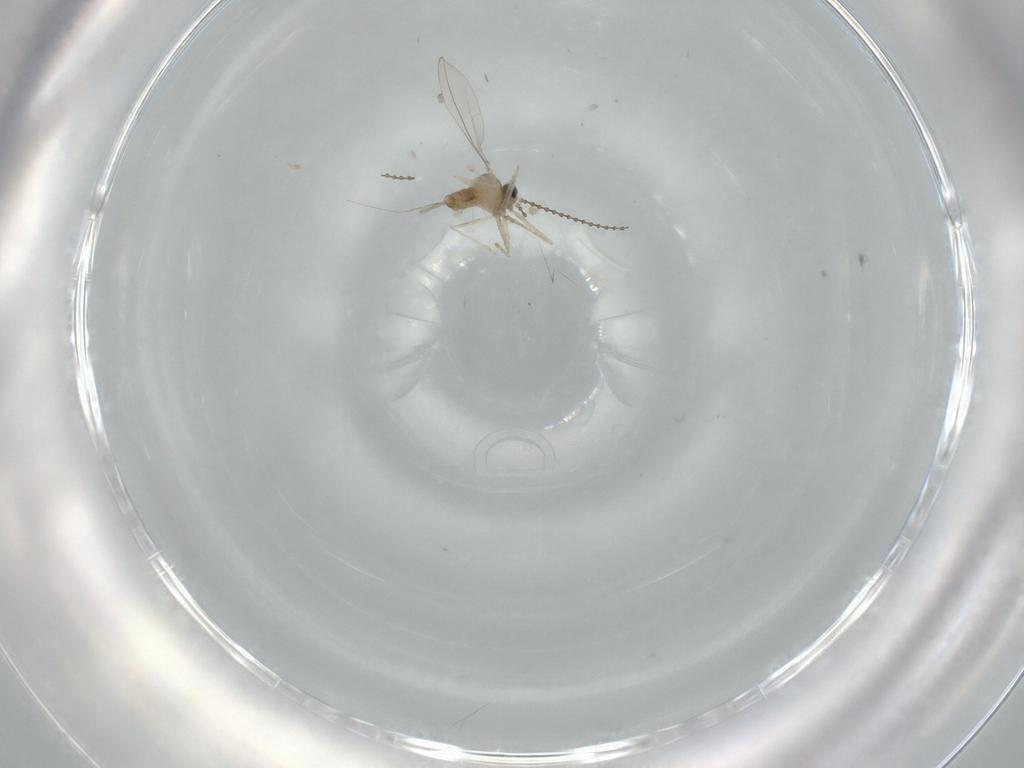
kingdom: Animalia
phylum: Arthropoda
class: Insecta
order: Diptera
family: Cecidomyiidae
